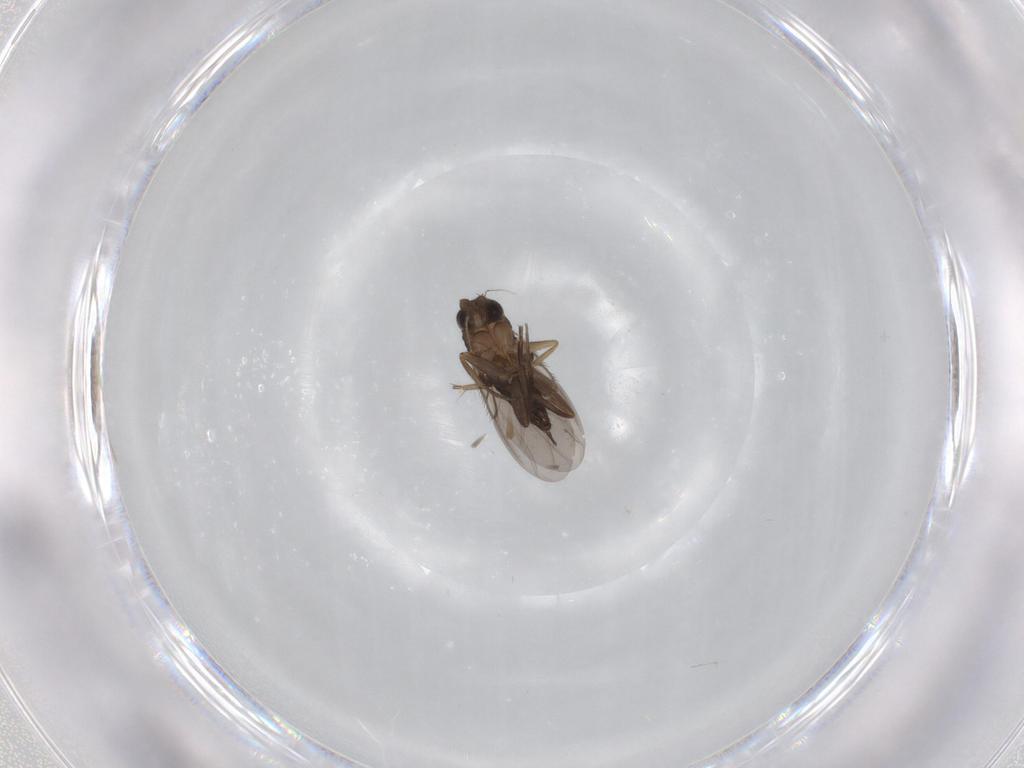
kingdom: Animalia
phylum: Arthropoda
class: Insecta
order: Diptera
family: Phoridae
